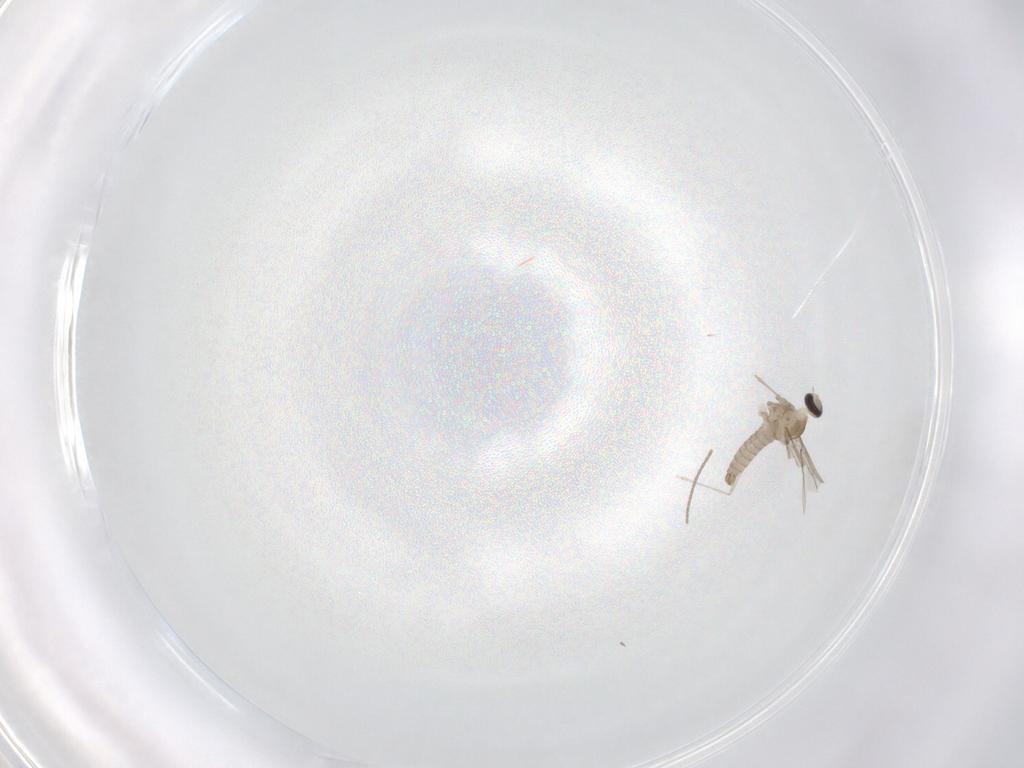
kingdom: Animalia
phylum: Arthropoda
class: Insecta
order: Diptera
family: Cecidomyiidae
